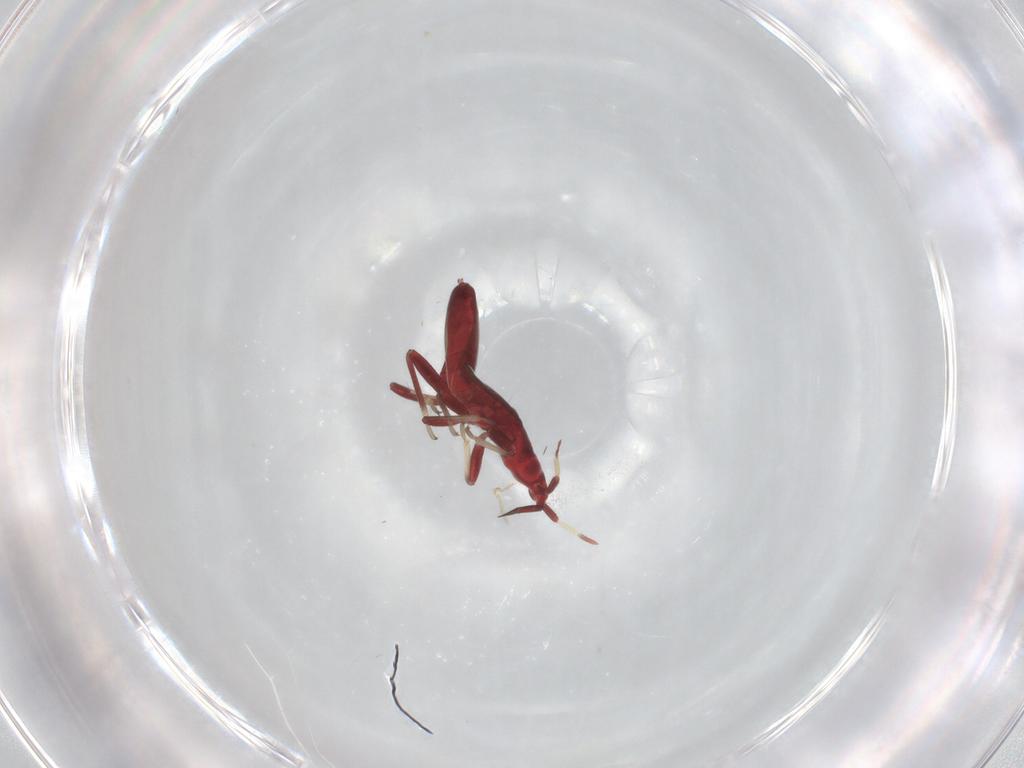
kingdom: Animalia
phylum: Arthropoda
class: Insecta
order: Hemiptera
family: Cimicoidea_incertae_sedis
